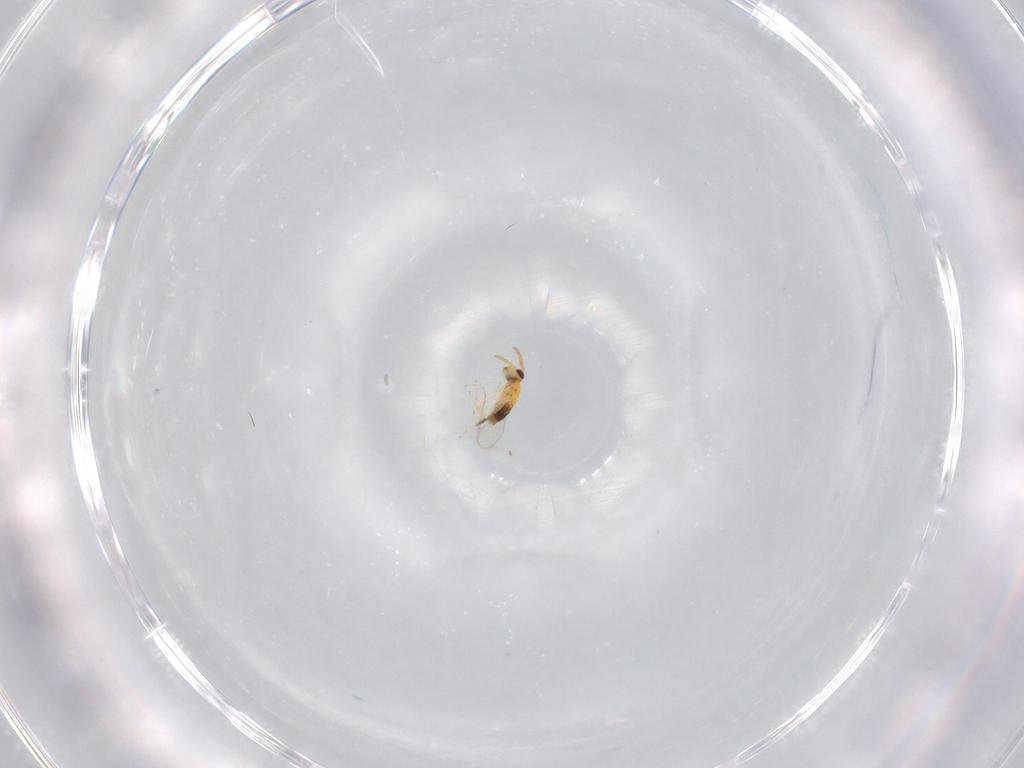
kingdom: Animalia
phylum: Arthropoda
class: Insecta
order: Hymenoptera
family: Aphelinidae
